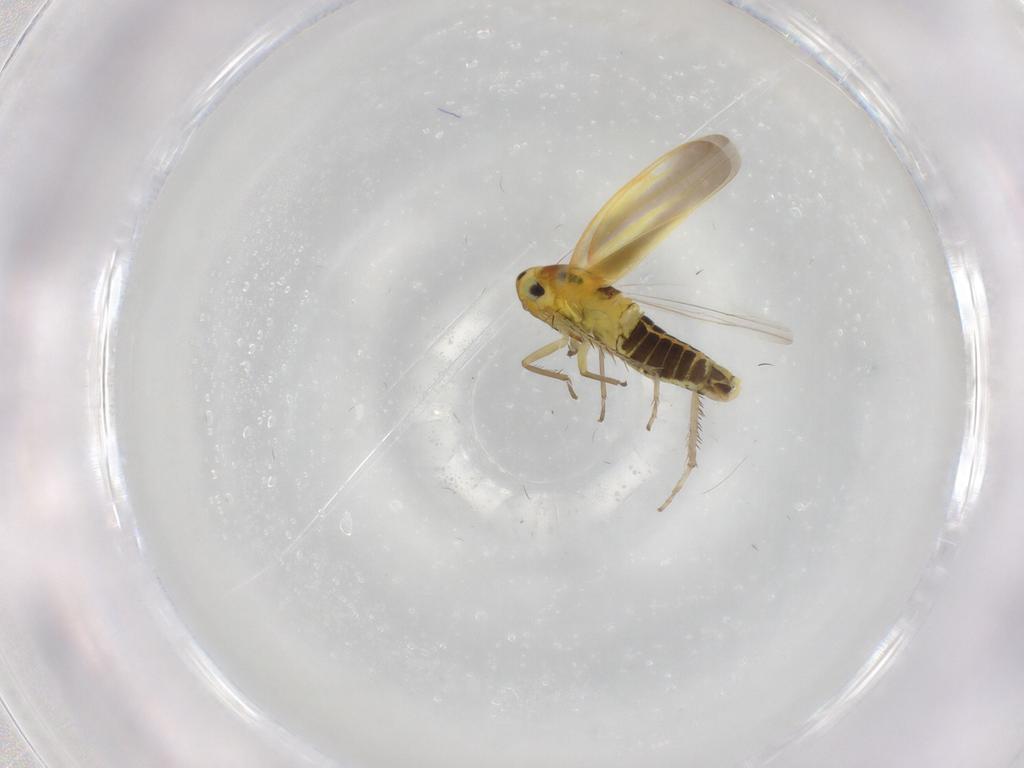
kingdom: Animalia
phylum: Arthropoda
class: Insecta
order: Hemiptera
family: Cicadellidae
